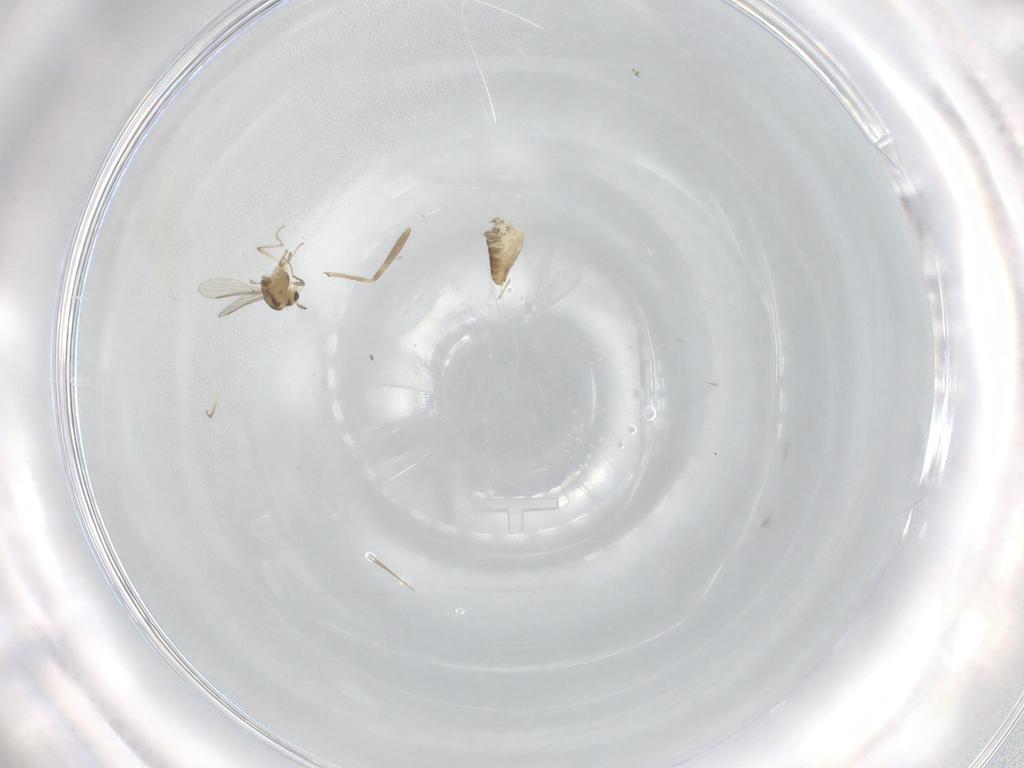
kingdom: Animalia
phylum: Arthropoda
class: Insecta
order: Diptera
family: Chironomidae
